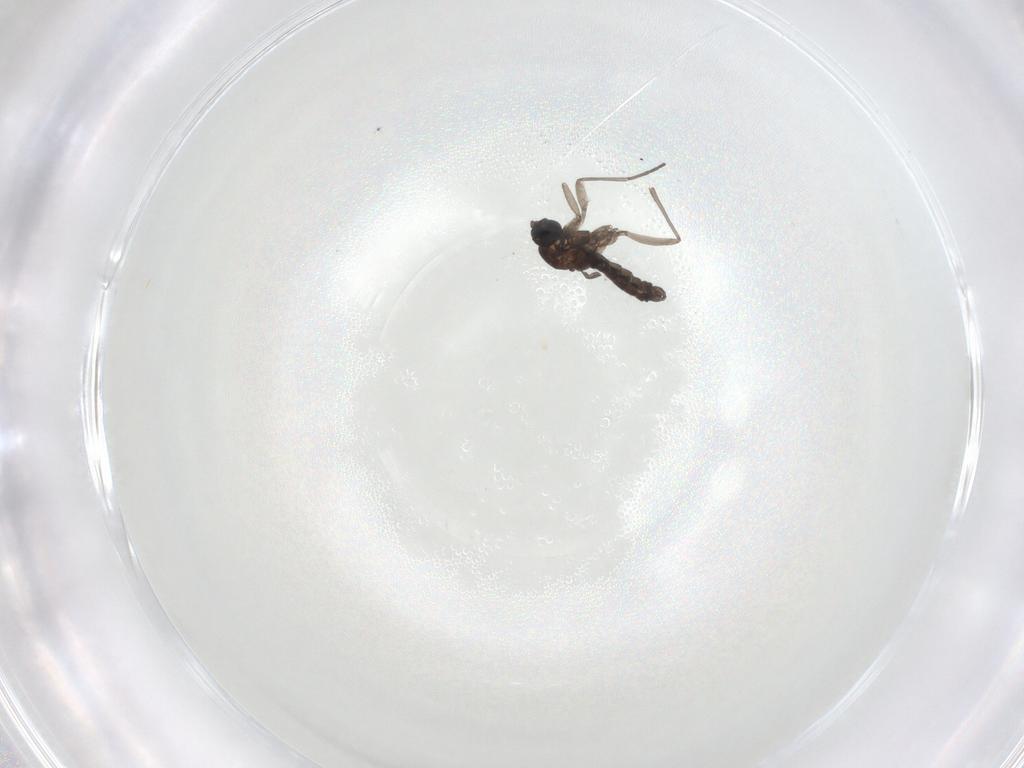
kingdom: Animalia
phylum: Arthropoda
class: Insecta
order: Diptera
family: Sciaridae
